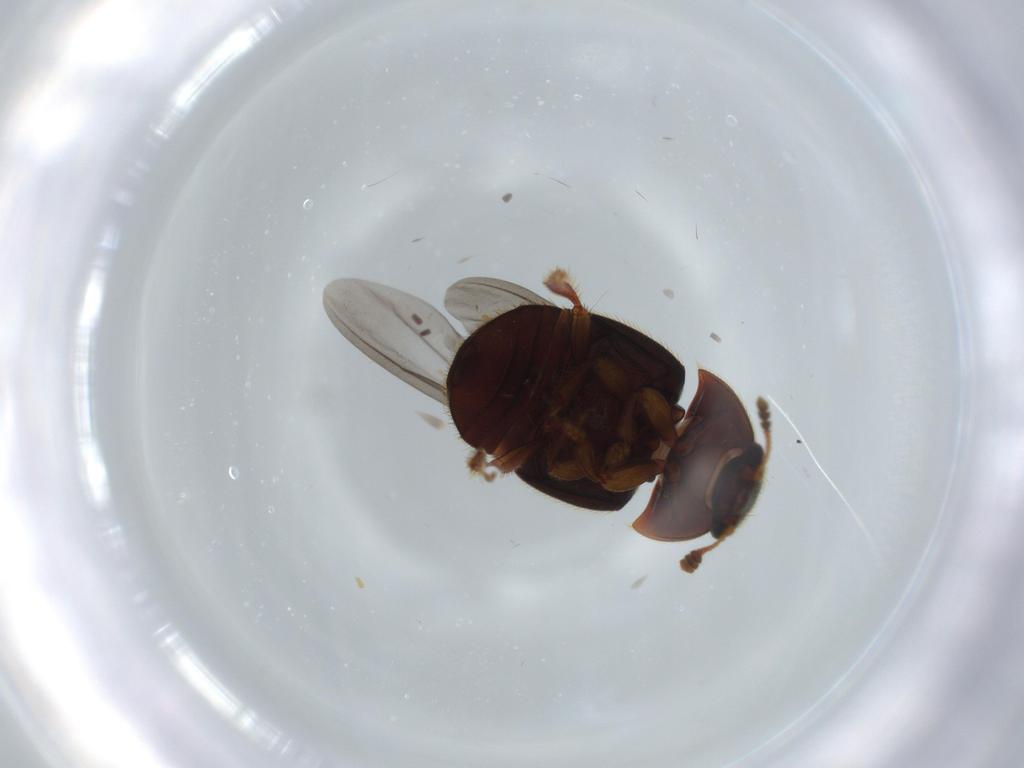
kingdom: Animalia
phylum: Arthropoda
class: Insecta
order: Coleoptera
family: Nitidulidae
